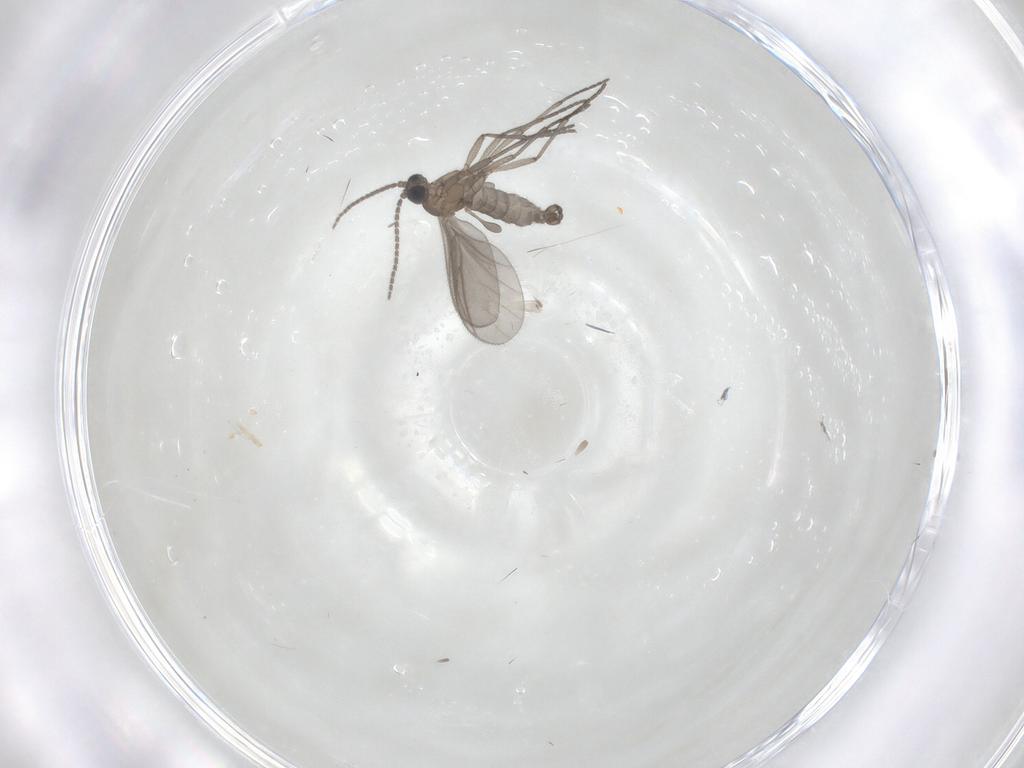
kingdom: Animalia
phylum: Arthropoda
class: Insecta
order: Diptera
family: Sciaridae
